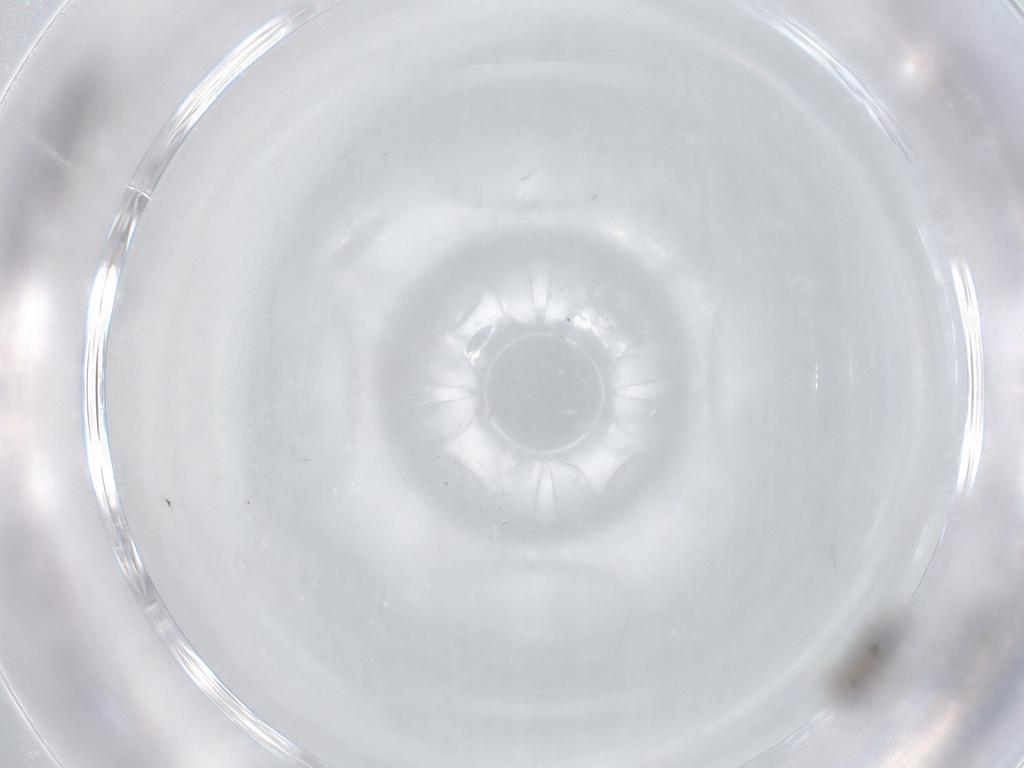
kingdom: Animalia
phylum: Arthropoda
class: Insecta
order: Hymenoptera
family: Scelionidae
